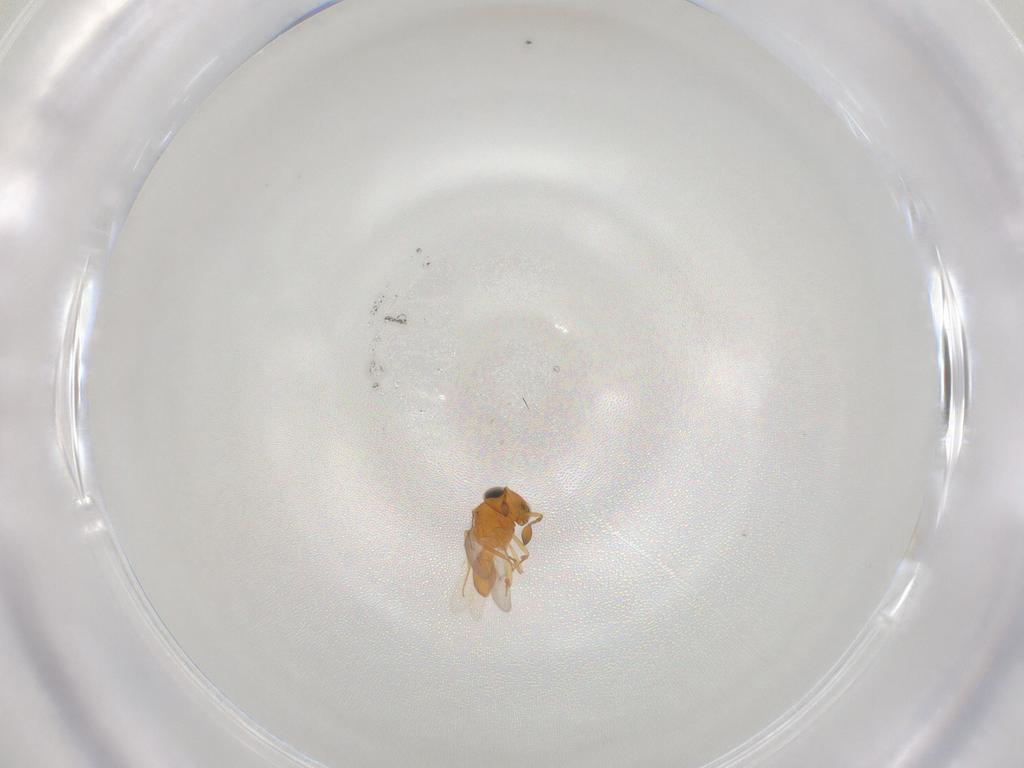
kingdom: Animalia
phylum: Arthropoda
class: Insecta
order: Hymenoptera
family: Scelionidae
